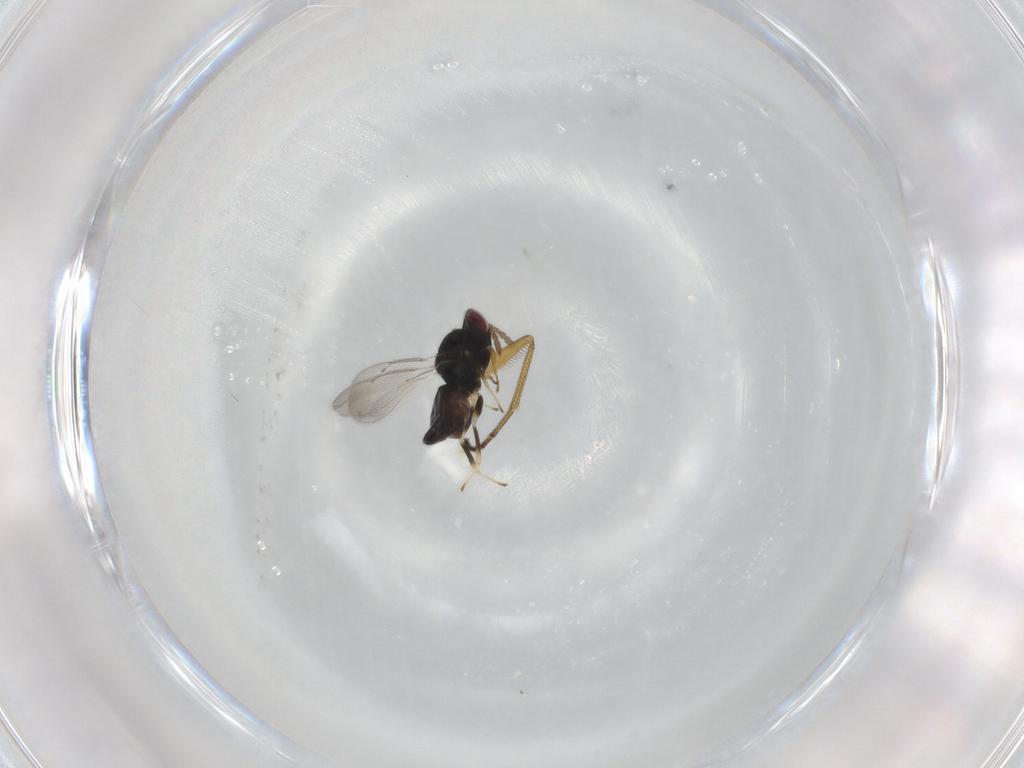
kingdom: Animalia
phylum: Arthropoda
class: Insecta
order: Hymenoptera
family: Eulophidae
